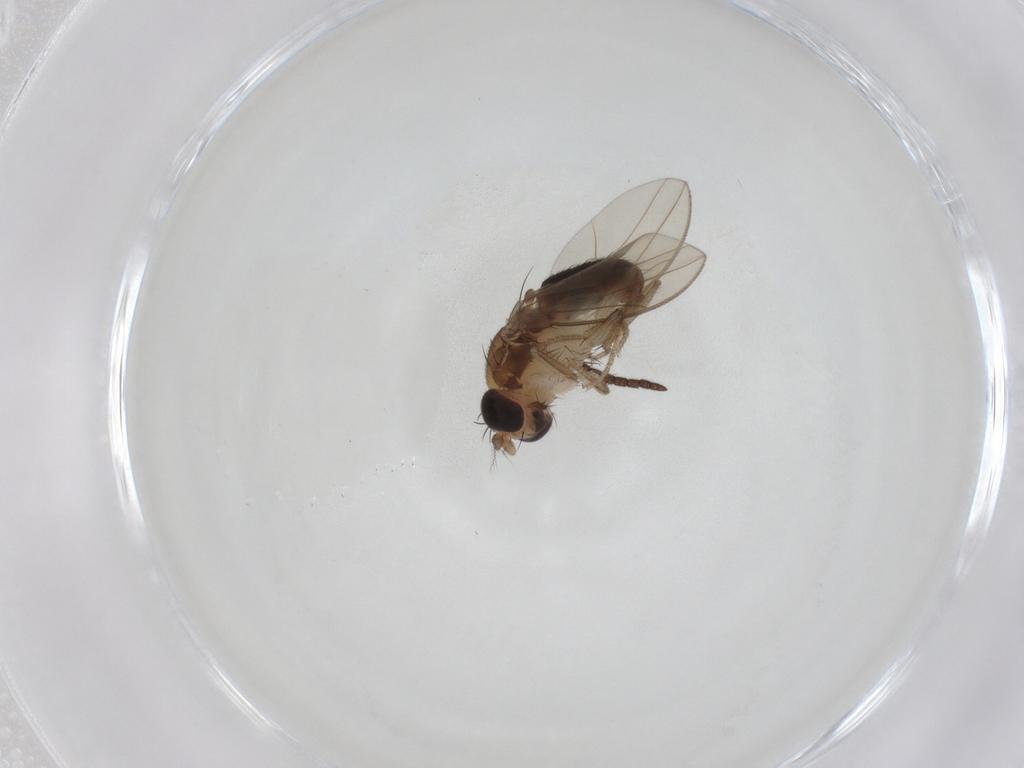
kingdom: Animalia
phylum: Arthropoda
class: Insecta
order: Diptera
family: Drosophilidae
